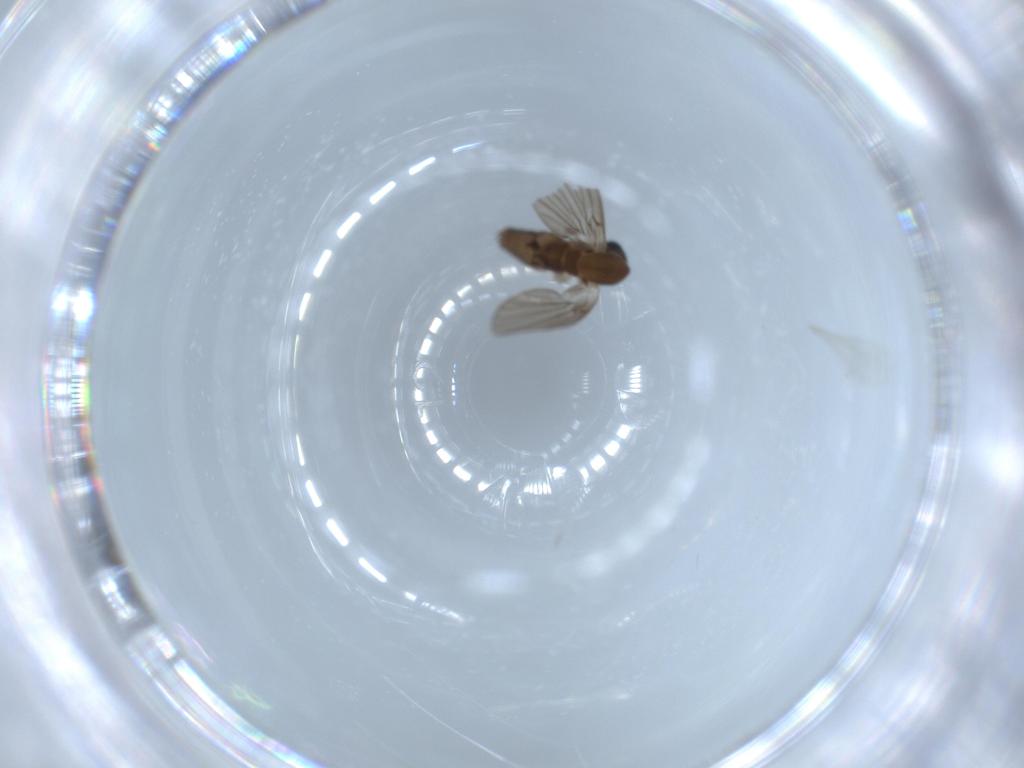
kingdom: Animalia
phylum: Arthropoda
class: Insecta
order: Diptera
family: Psychodidae
